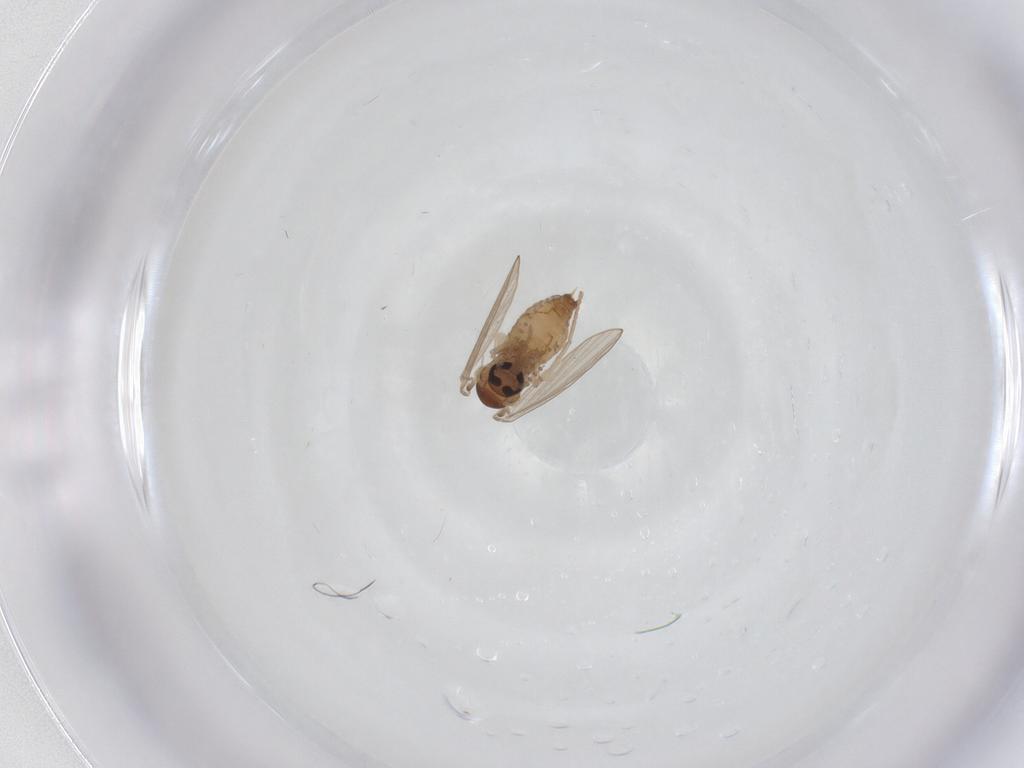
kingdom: Animalia
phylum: Arthropoda
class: Insecta
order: Diptera
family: Psychodidae
